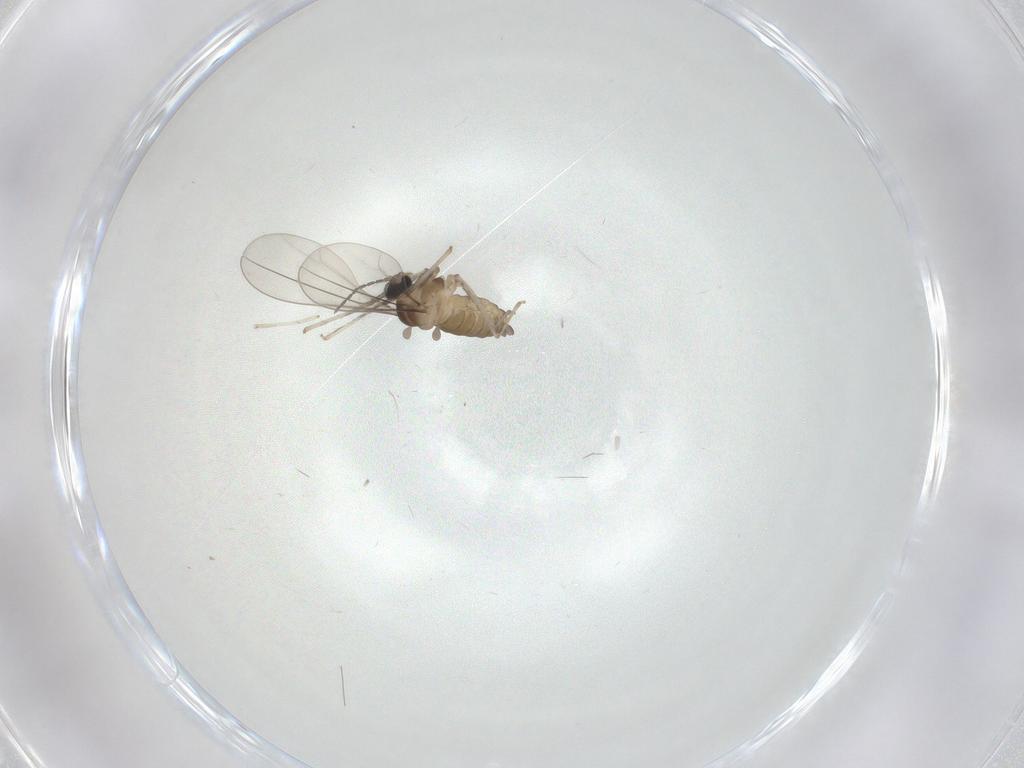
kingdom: Animalia
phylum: Arthropoda
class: Insecta
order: Diptera
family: Cecidomyiidae
